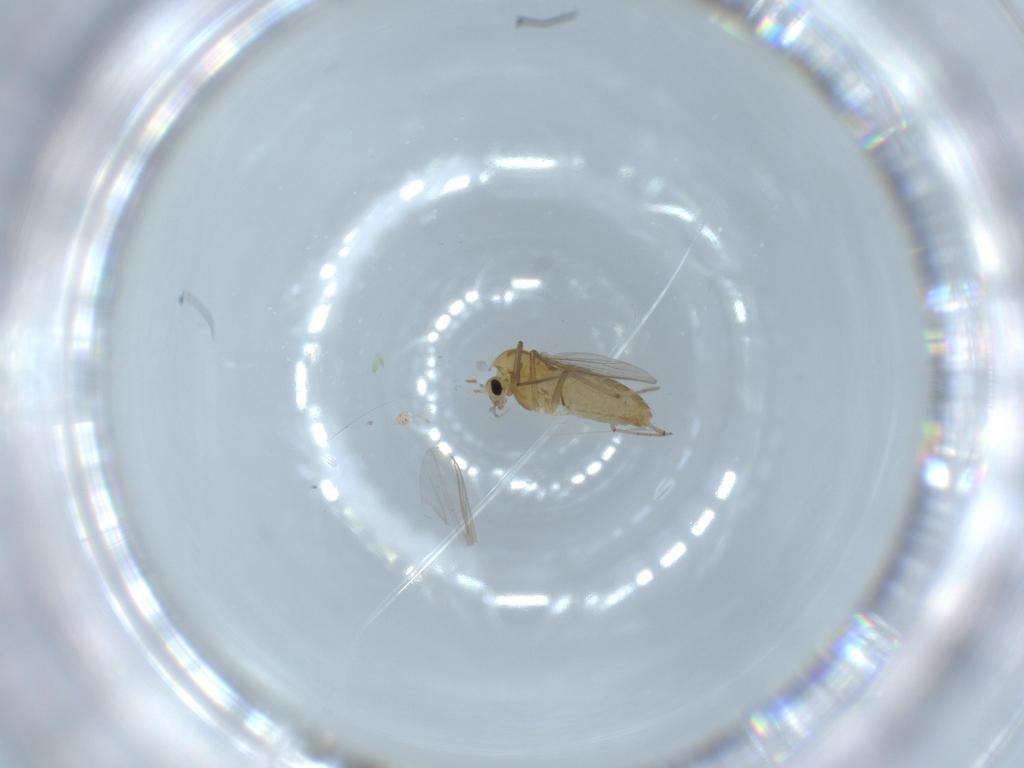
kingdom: Animalia
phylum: Arthropoda
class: Insecta
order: Diptera
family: Chironomidae
